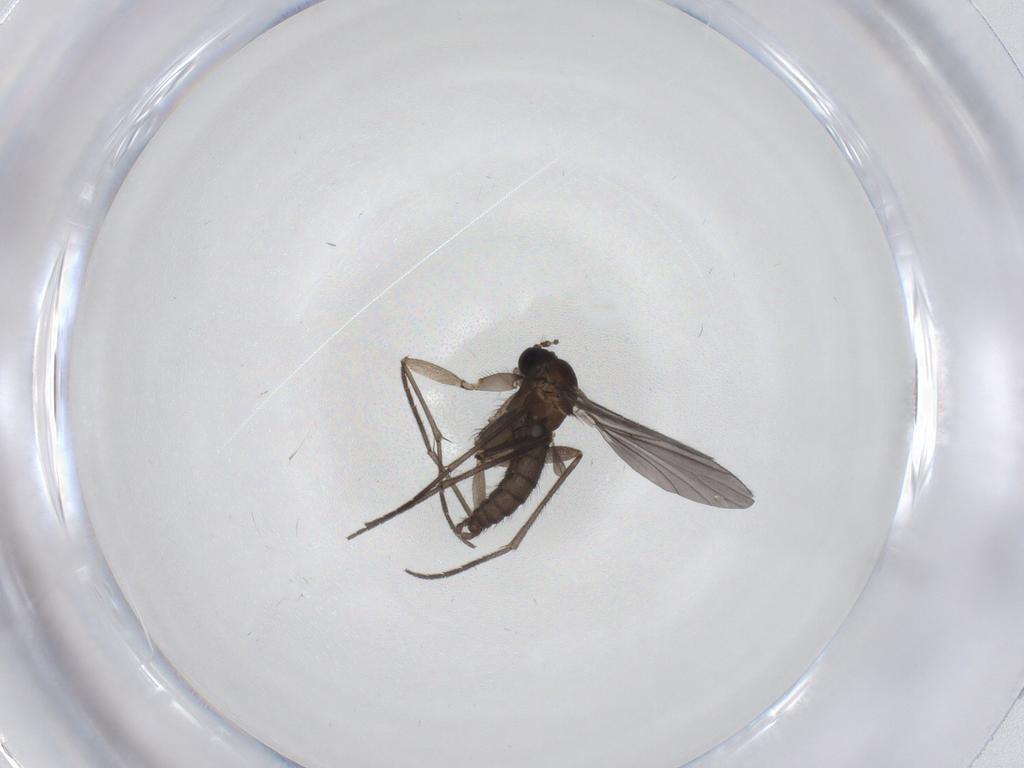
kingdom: Animalia
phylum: Arthropoda
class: Insecta
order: Diptera
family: Sciaridae
